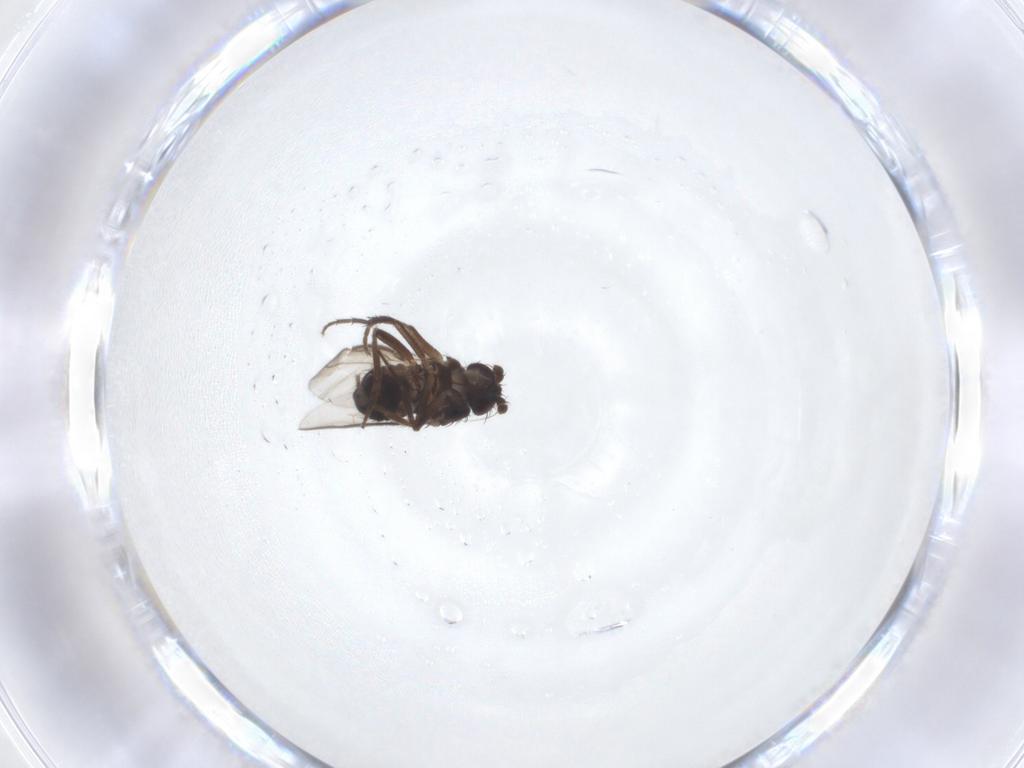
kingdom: Animalia
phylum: Arthropoda
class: Insecta
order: Diptera
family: Sphaeroceridae
